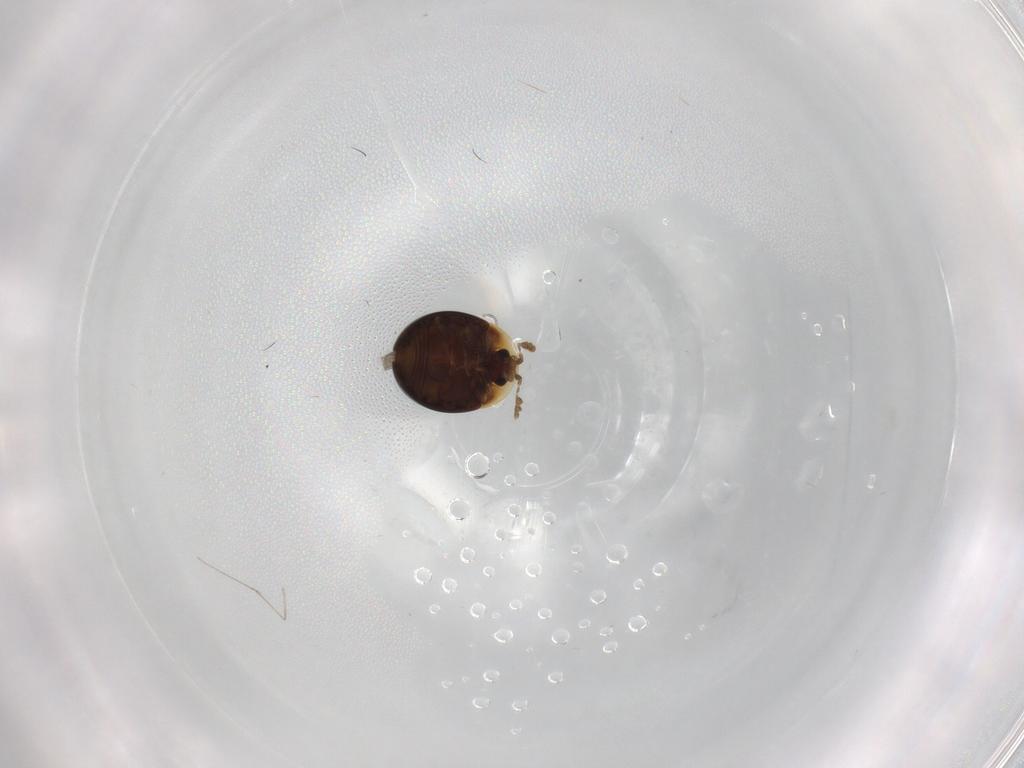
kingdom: Animalia
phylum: Arthropoda
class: Insecta
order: Coleoptera
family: Corylophidae
